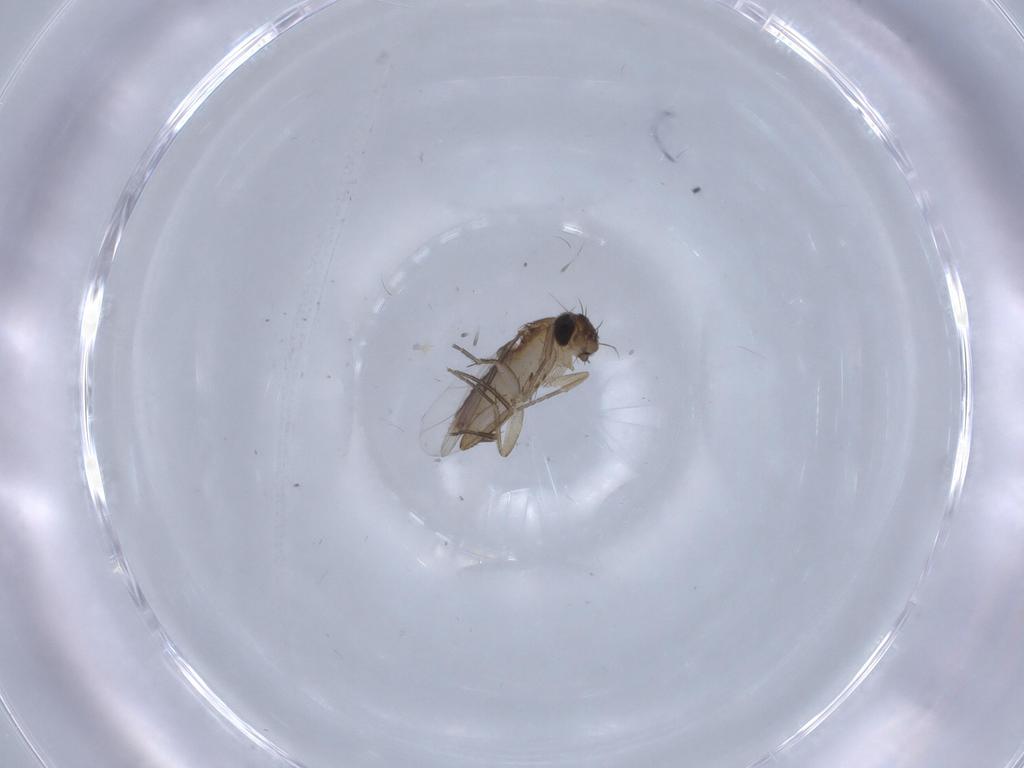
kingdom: Animalia
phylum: Arthropoda
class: Insecta
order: Diptera
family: Phoridae
